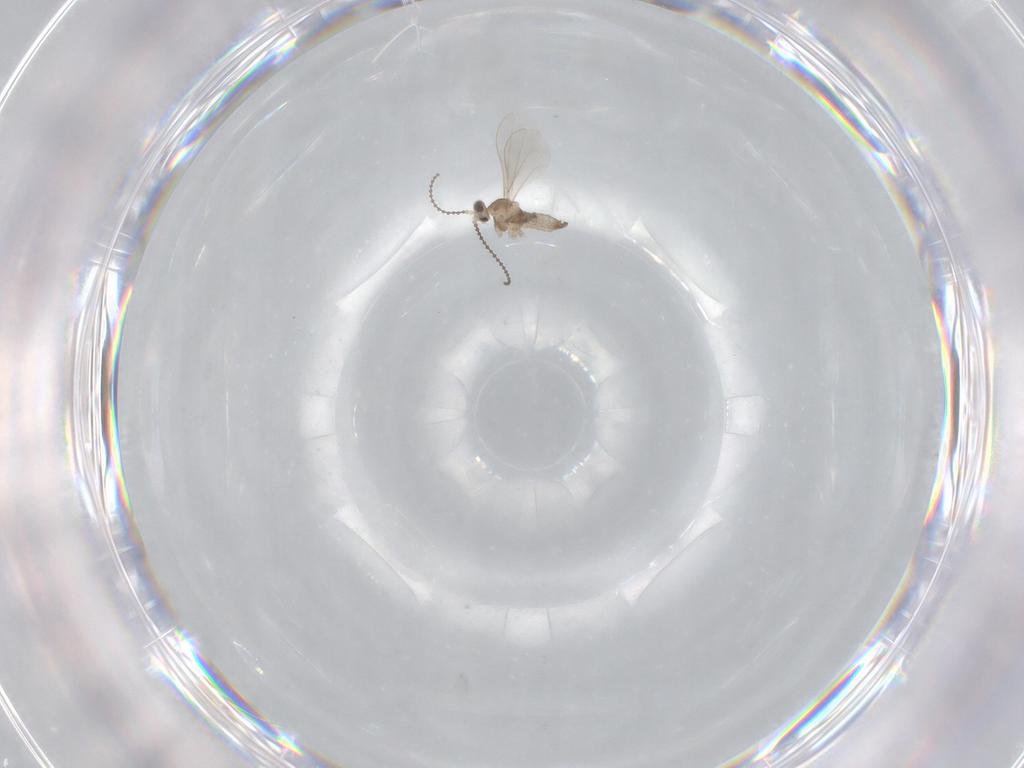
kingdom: Animalia
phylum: Arthropoda
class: Insecta
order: Diptera
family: Cecidomyiidae
